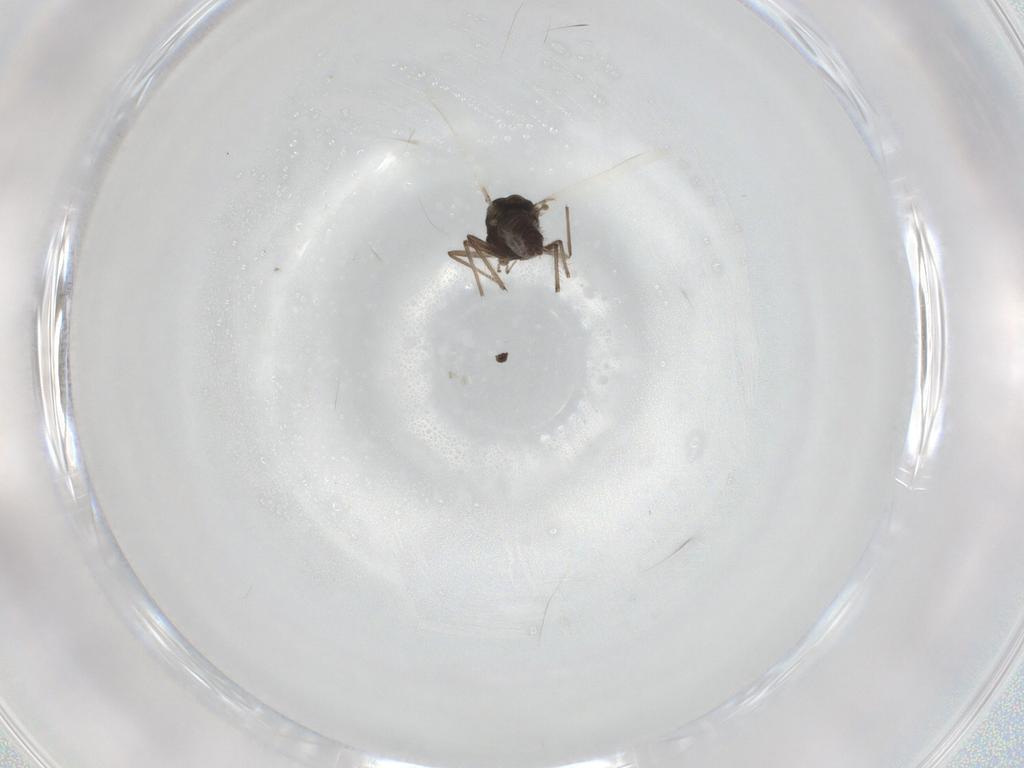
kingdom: Animalia
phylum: Arthropoda
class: Insecta
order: Diptera
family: Chironomidae
